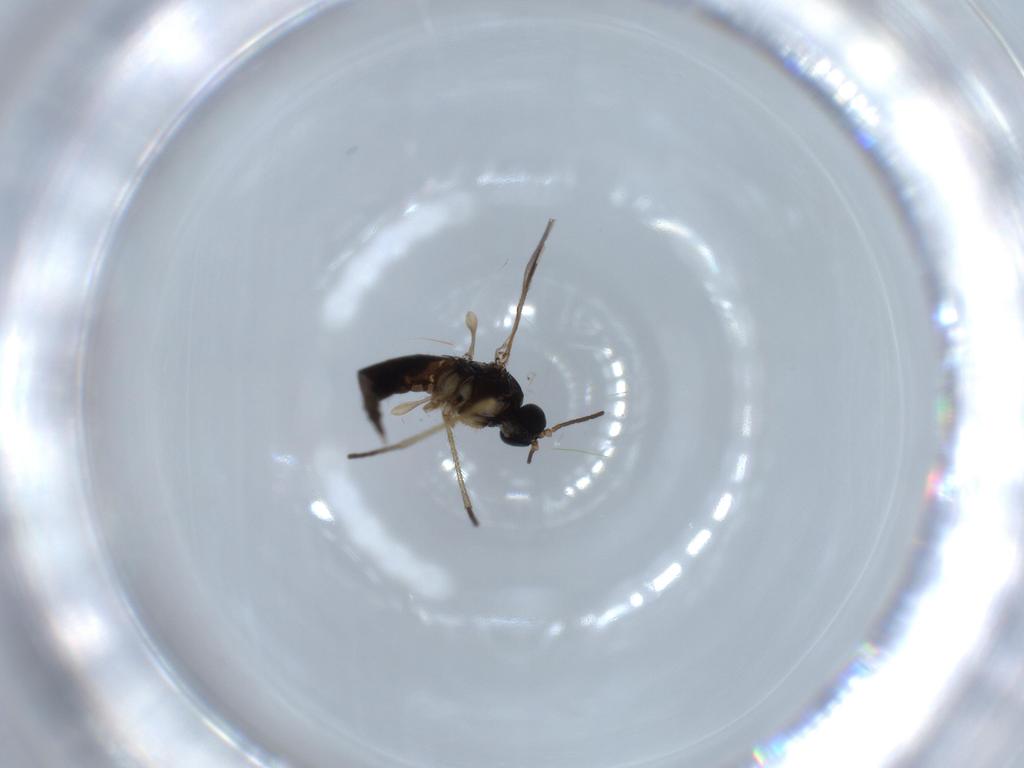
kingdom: Animalia
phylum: Arthropoda
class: Insecta
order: Diptera
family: Sciaridae
